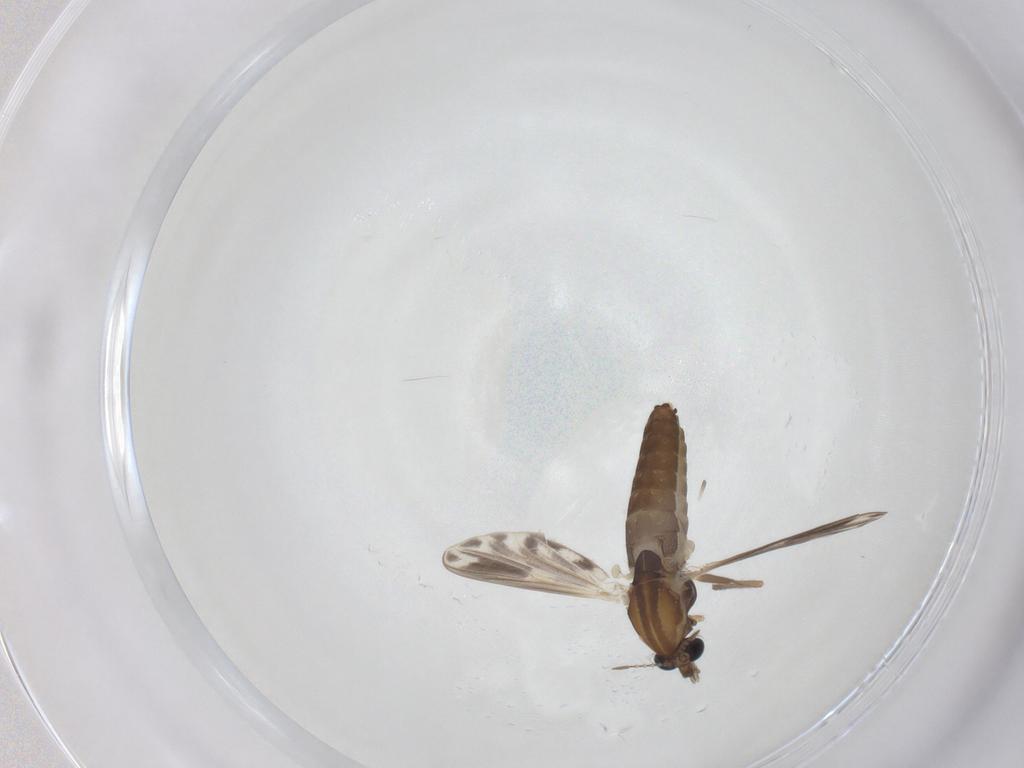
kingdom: Animalia
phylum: Arthropoda
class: Insecta
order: Diptera
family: Chironomidae
